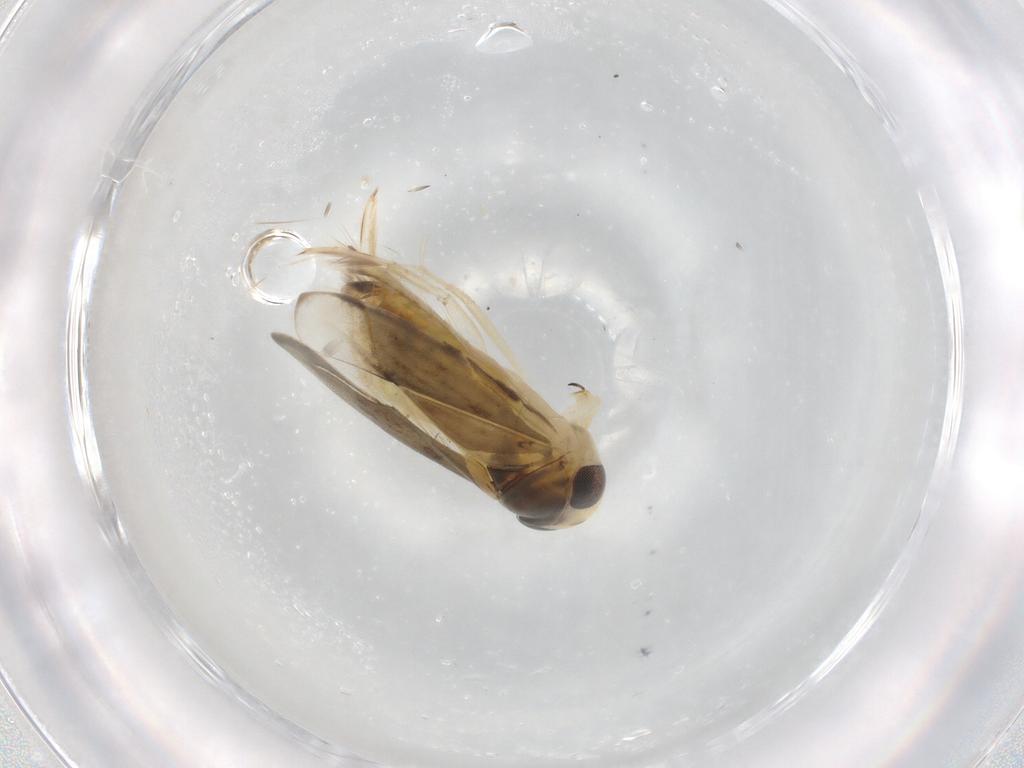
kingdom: Animalia
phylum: Arthropoda
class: Insecta
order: Hemiptera
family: Corixidae
